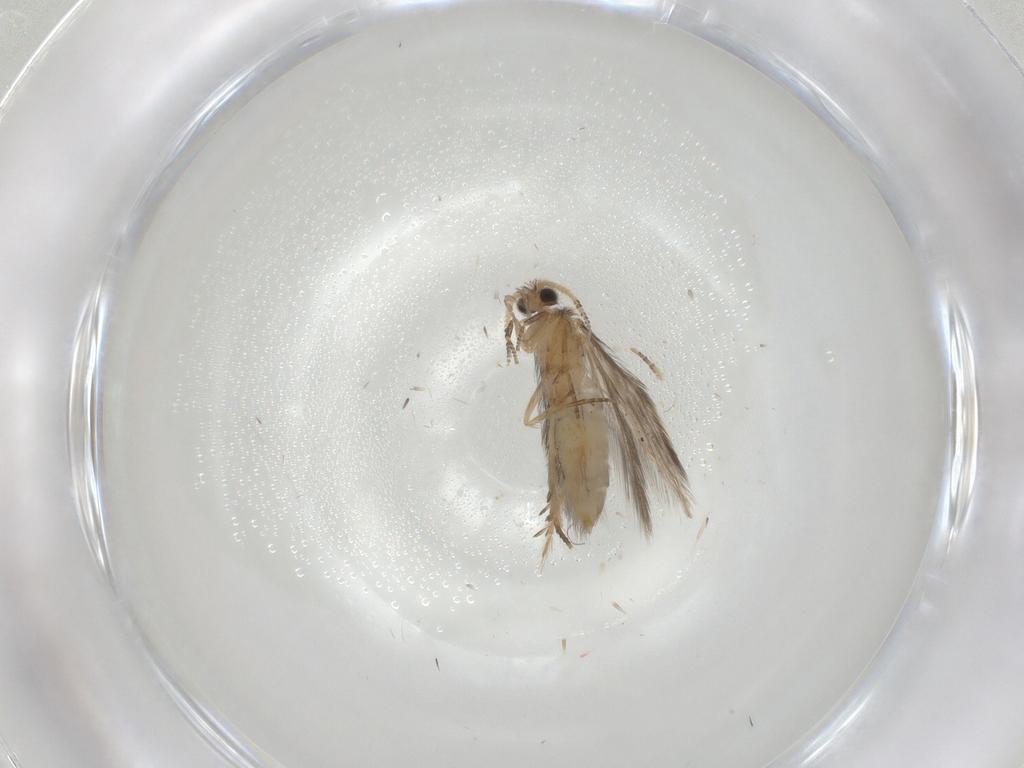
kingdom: Animalia
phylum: Arthropoda
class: Insecta
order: Trichoptera
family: Hydroptilidae
